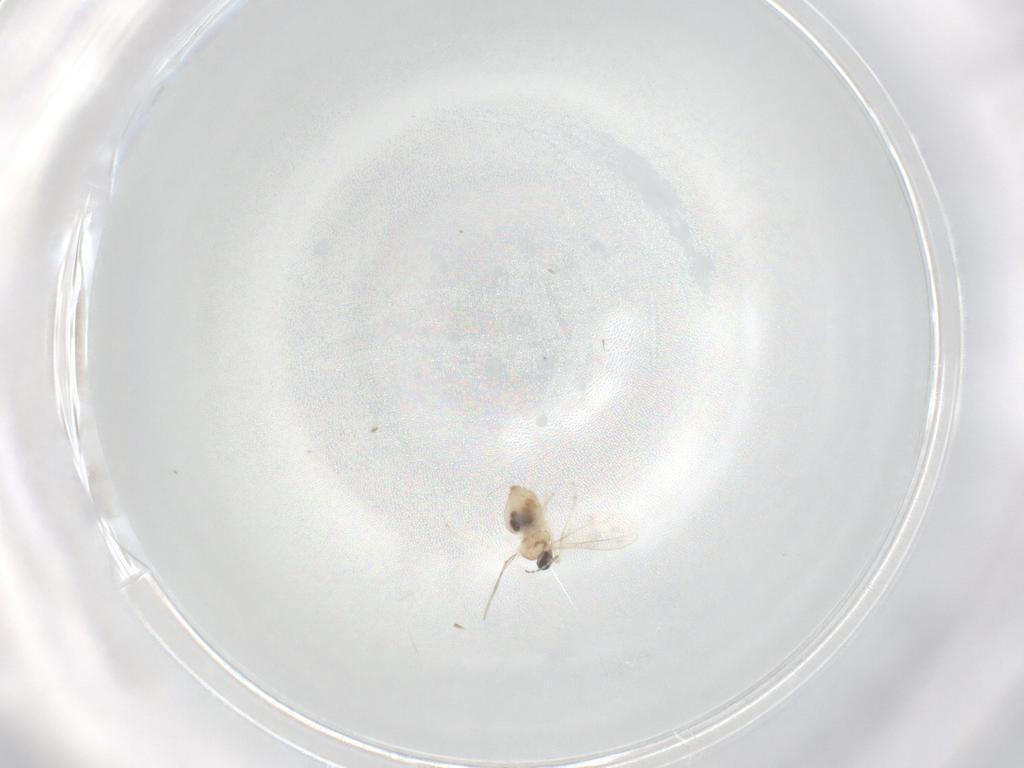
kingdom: Animalia
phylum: Arthropoda
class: Insecta
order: Diptera
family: Cecidomyiidae
